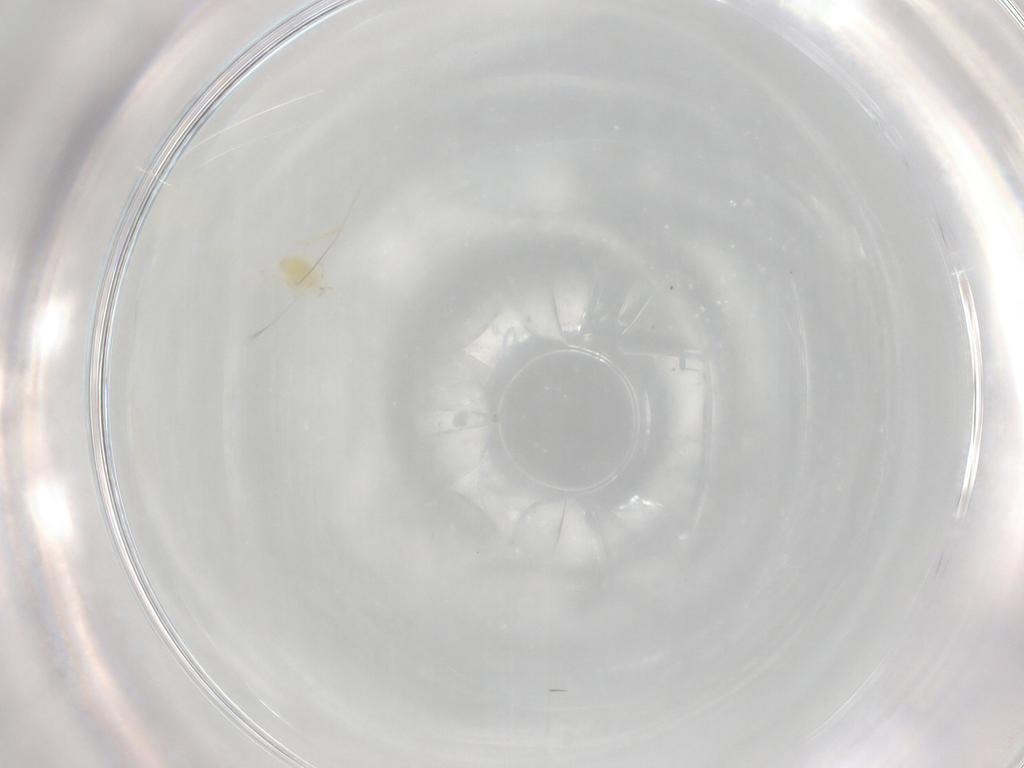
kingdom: Animalia
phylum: Arthropoda
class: Insecta
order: Hemiptera
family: Aleyrodidae
